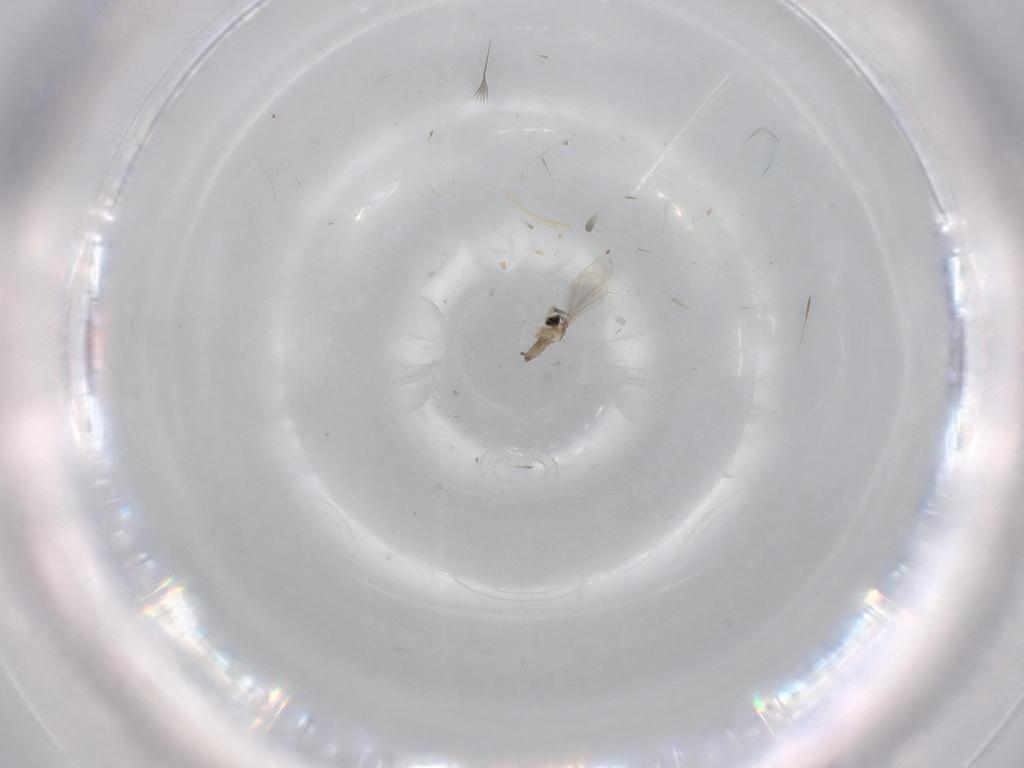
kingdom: Animalia
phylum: Arthropoda
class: Insecta
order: Diptera
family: Cecidomyiidae
